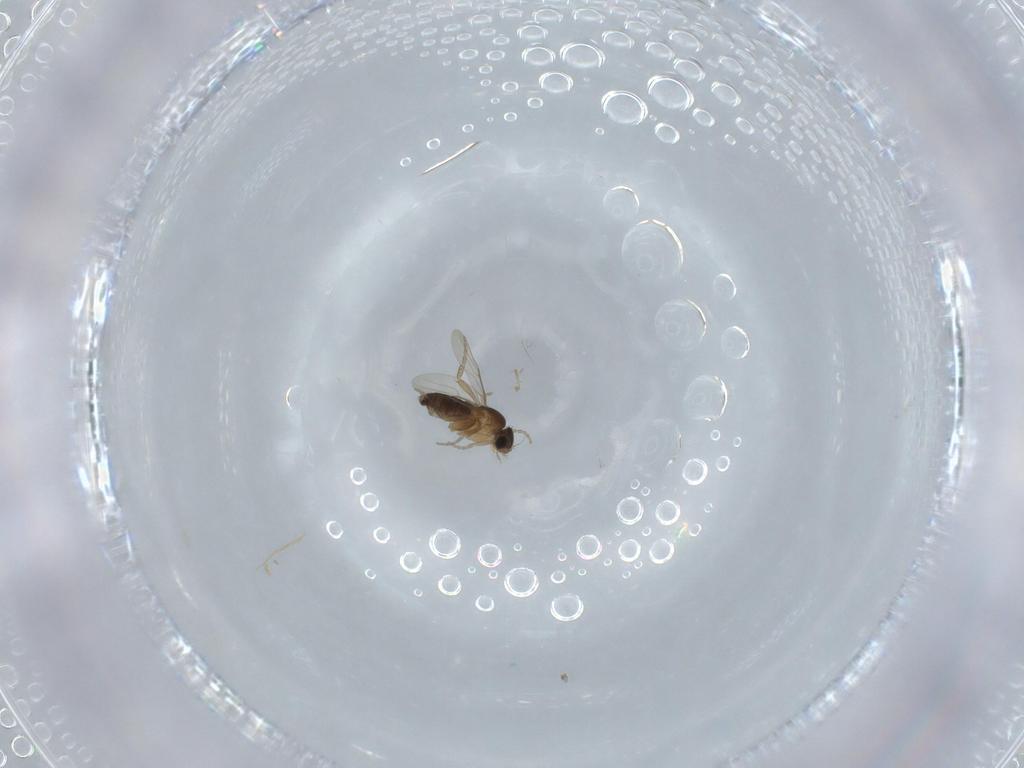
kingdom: Animalia
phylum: Arthropoda
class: Insecta
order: Diptera
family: Phoridae
